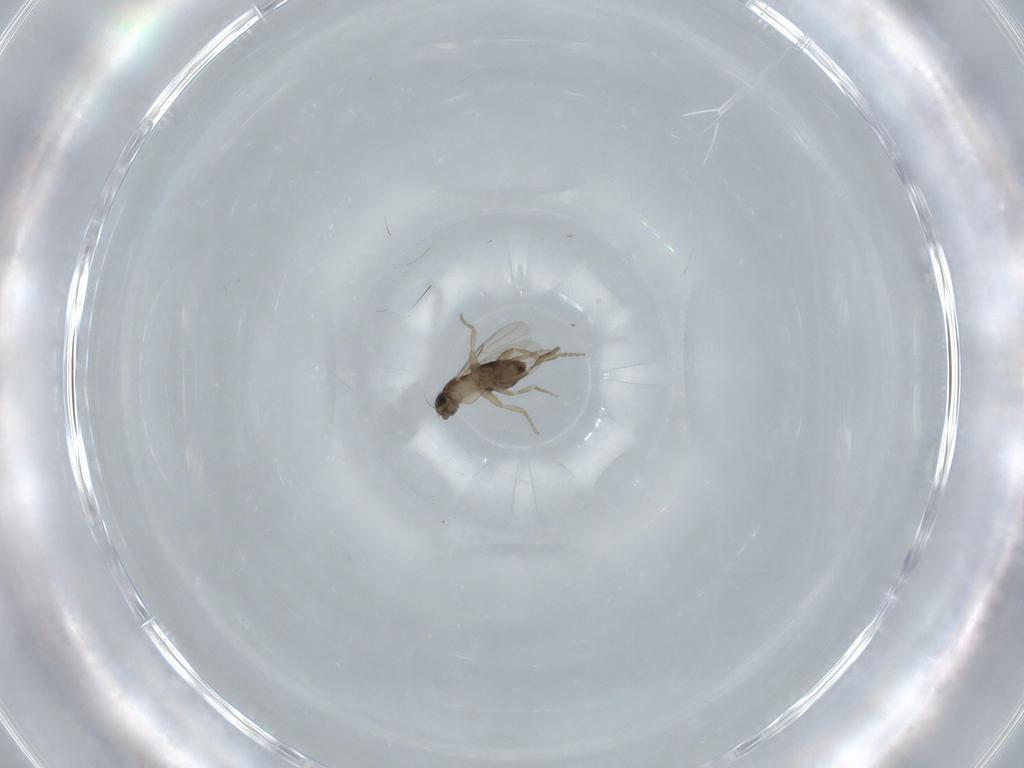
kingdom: Animalia
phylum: Arthropoda
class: Insecta
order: Diptera
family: Phoridae
